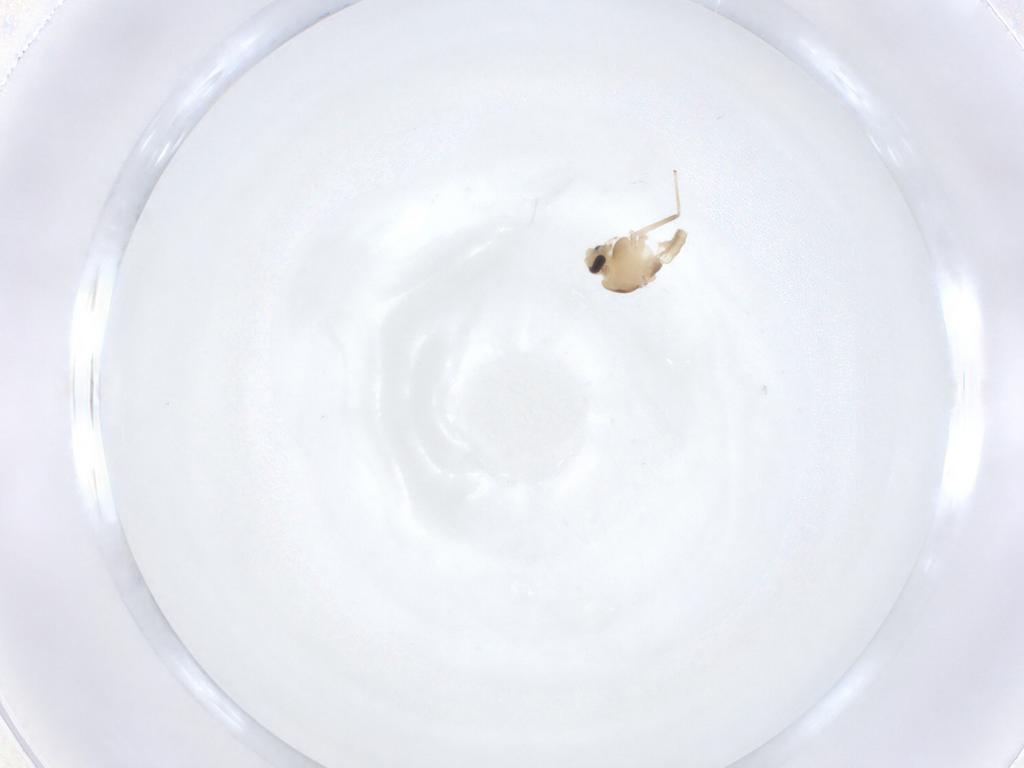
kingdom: Animalia
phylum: Arthropoda
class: Insecta
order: Diptera
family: Chironomidae
